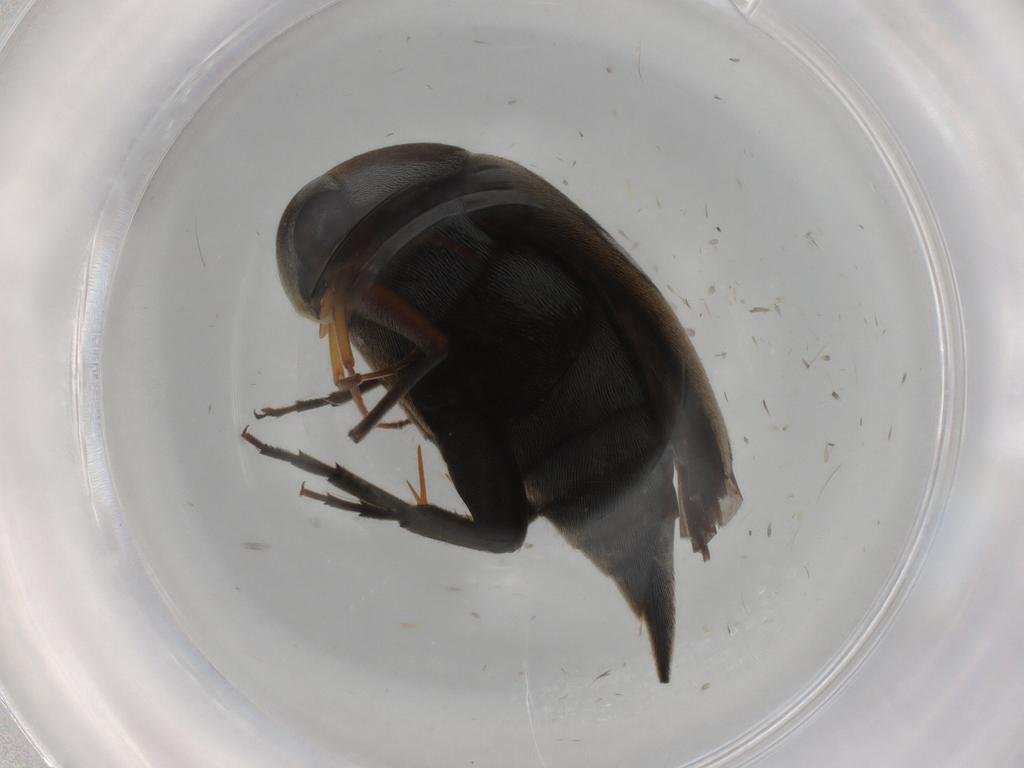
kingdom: Animalia
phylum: Arthropoda
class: Insecta
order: Coleoptera
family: Mordellidae
